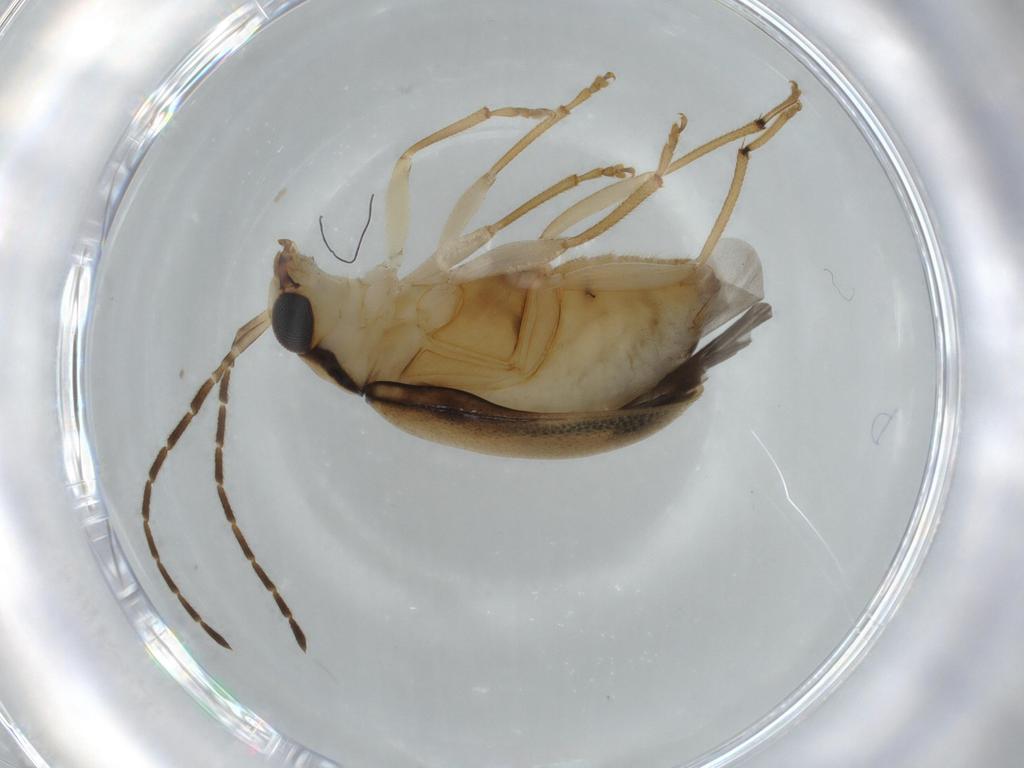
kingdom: Animalia
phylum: Arthropoda
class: Insecta
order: Coleoptera
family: Elateridae
